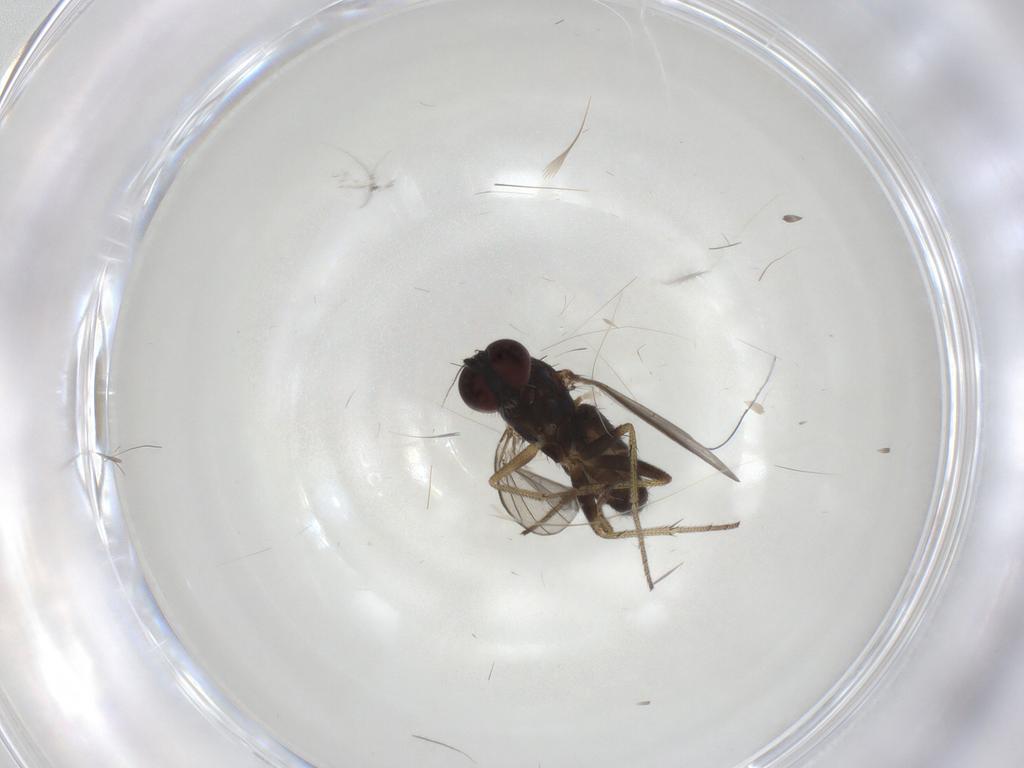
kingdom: Animalia
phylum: Arthropoda
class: Insecta
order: Diptera
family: Chironomidae
